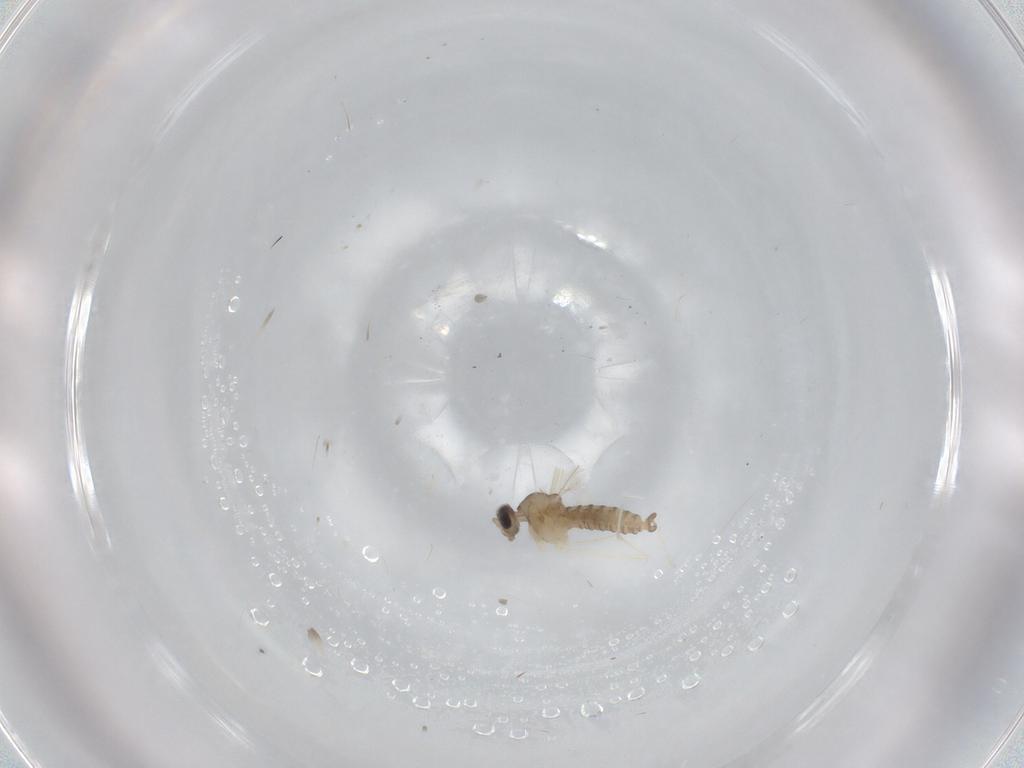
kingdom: Animalia
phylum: Arthropoda
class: Insecta
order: Diptera
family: Cecidomyiidae
